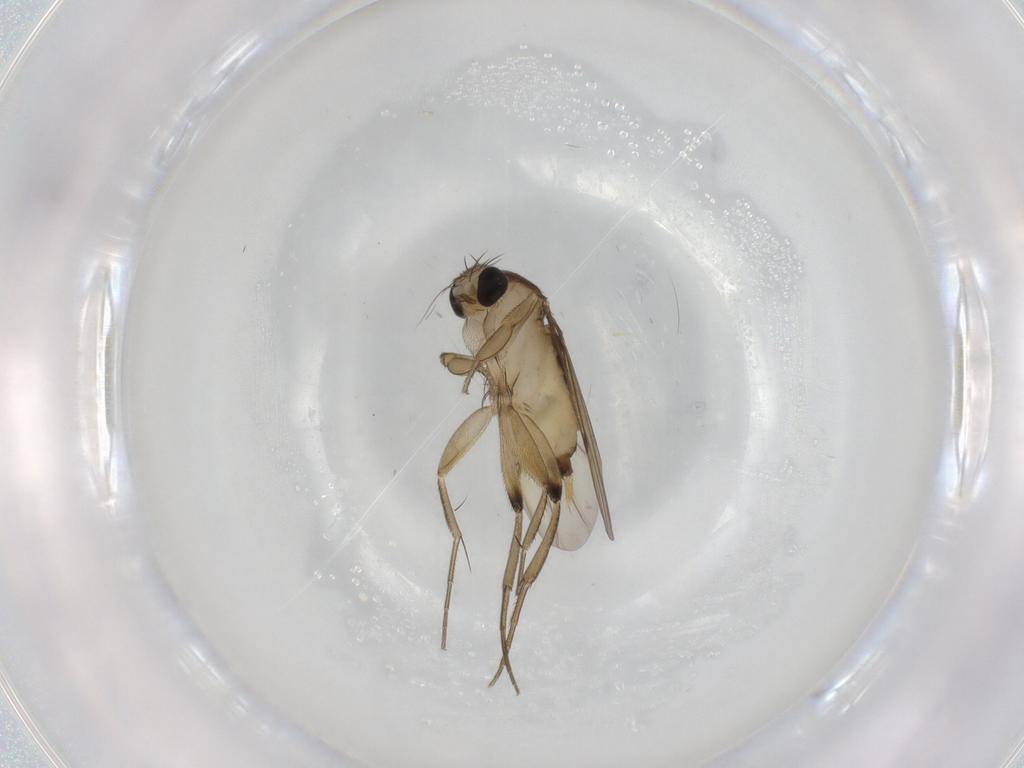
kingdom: Animalia
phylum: Arthropoda
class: Insecta
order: Diptera
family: Phoridae
